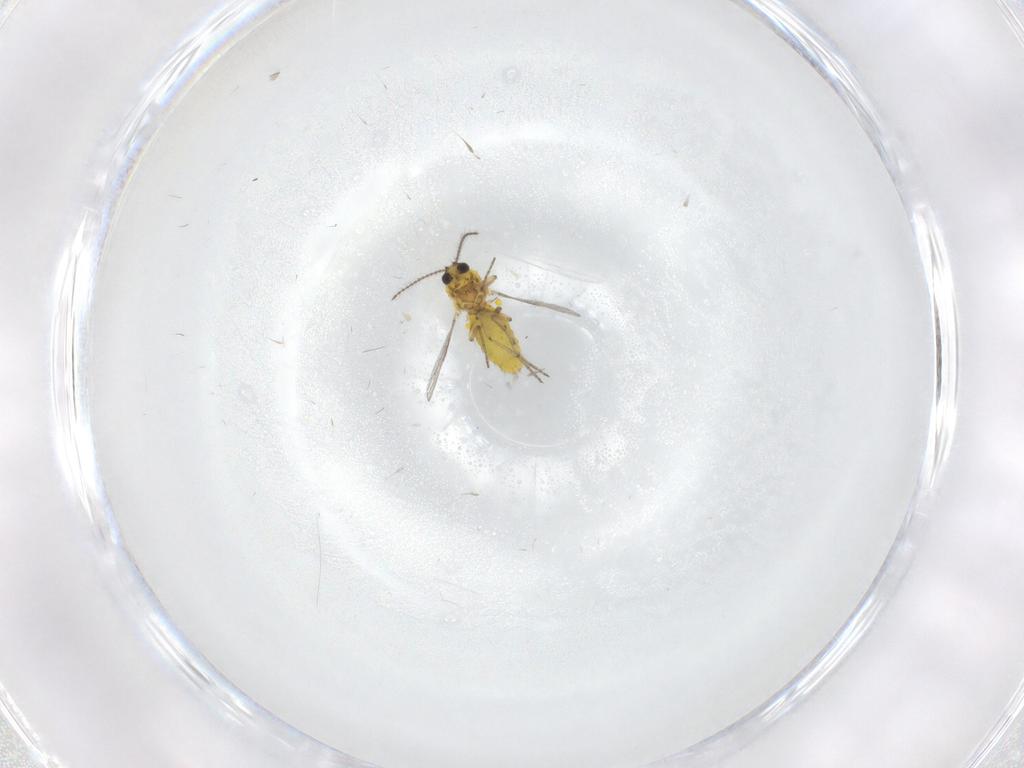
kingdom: Animalia
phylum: Arthropoda
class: Insecta
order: Diptera
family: Ceratopogonidae
